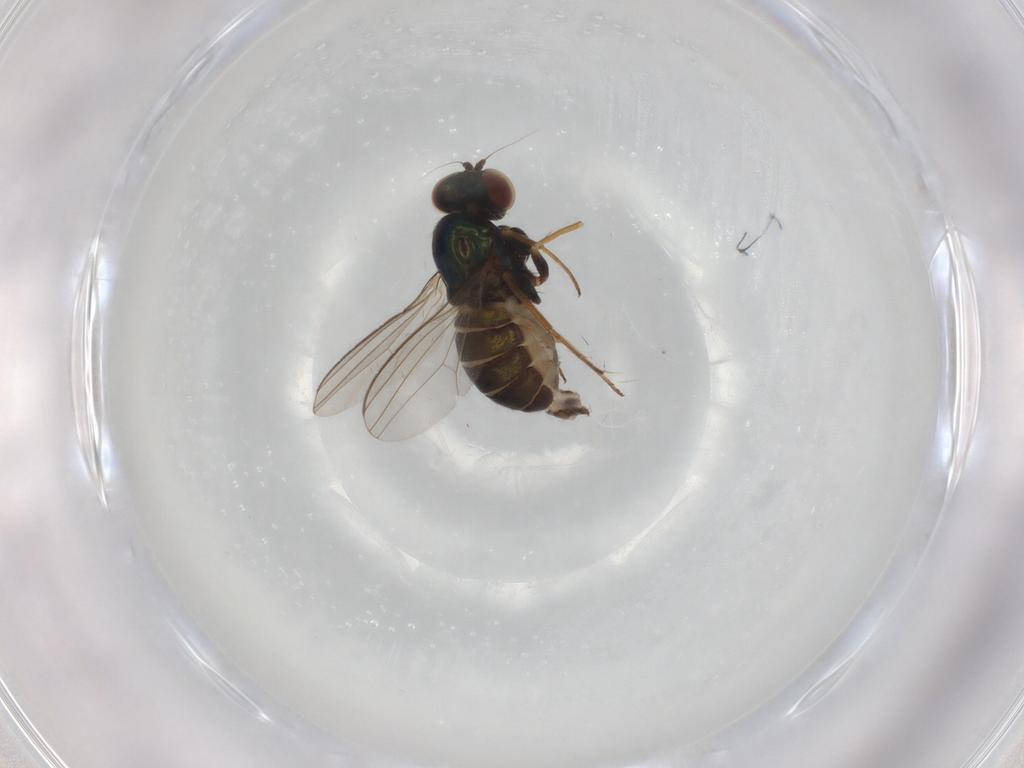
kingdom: Animalia
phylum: Arthropoda
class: Insecta
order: Diptera
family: Dolichopodidae
